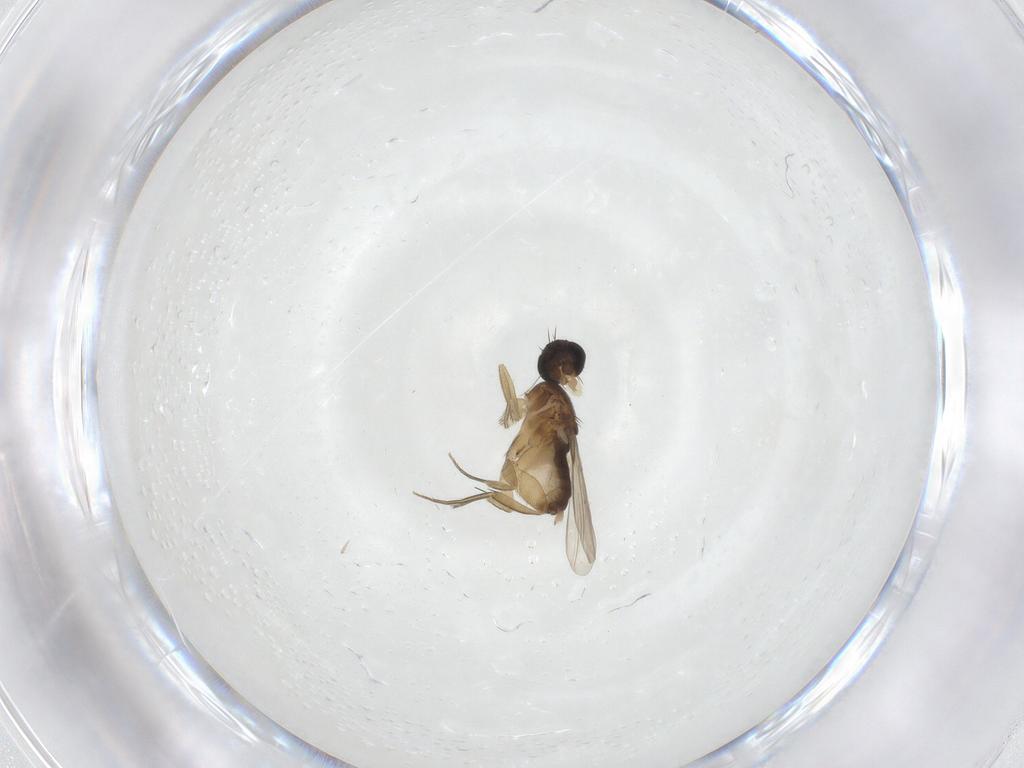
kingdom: Animalia
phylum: Arthropoda
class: Insecta
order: Diptera
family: Phoridae
